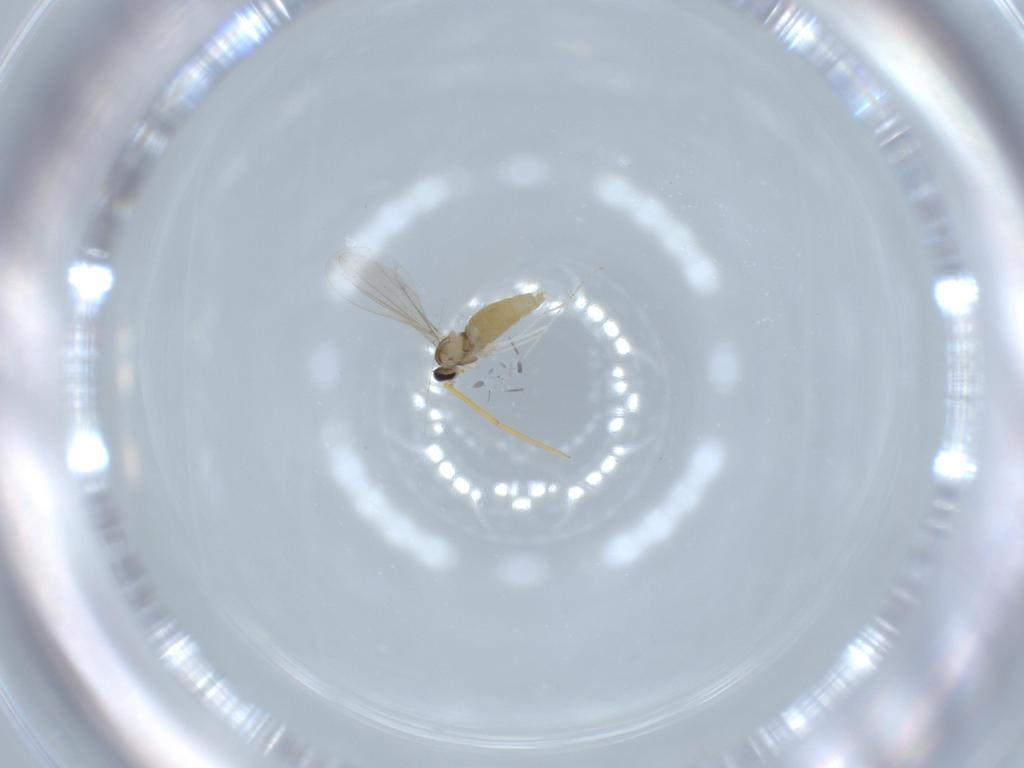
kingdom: Animalia
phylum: Arthropoda
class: Insecta
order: Diptera
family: Cecidomyiidae
